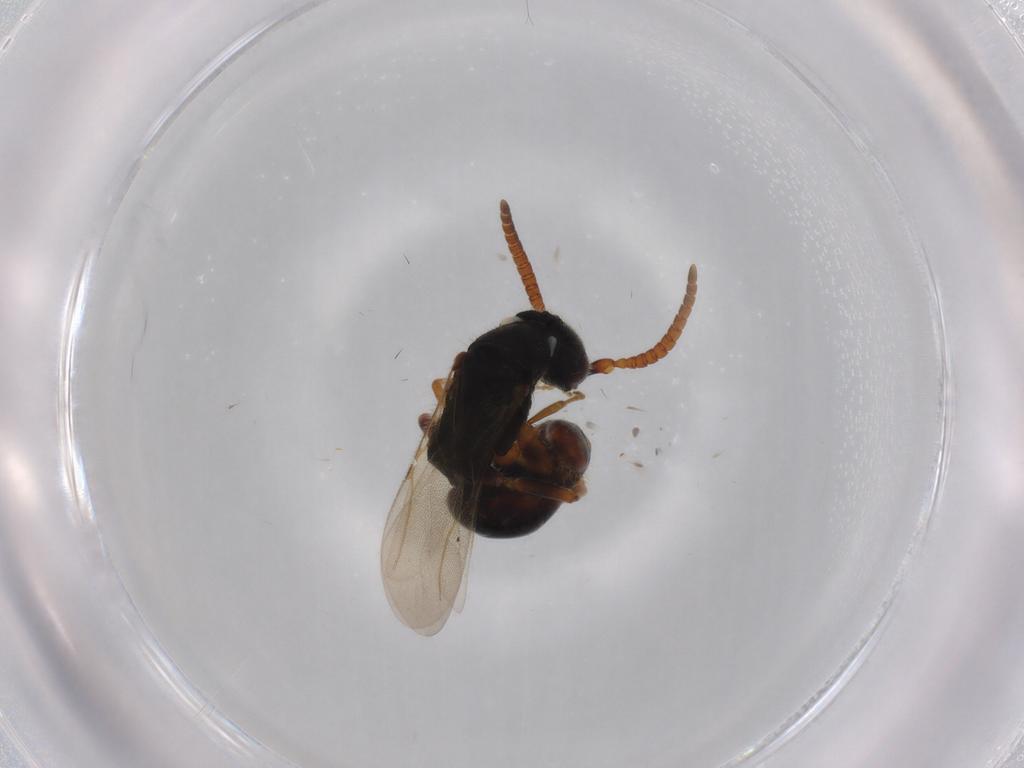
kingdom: Animalia
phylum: Arthropoda
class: Insecta
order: Hymenoptera
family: Bethylidae
